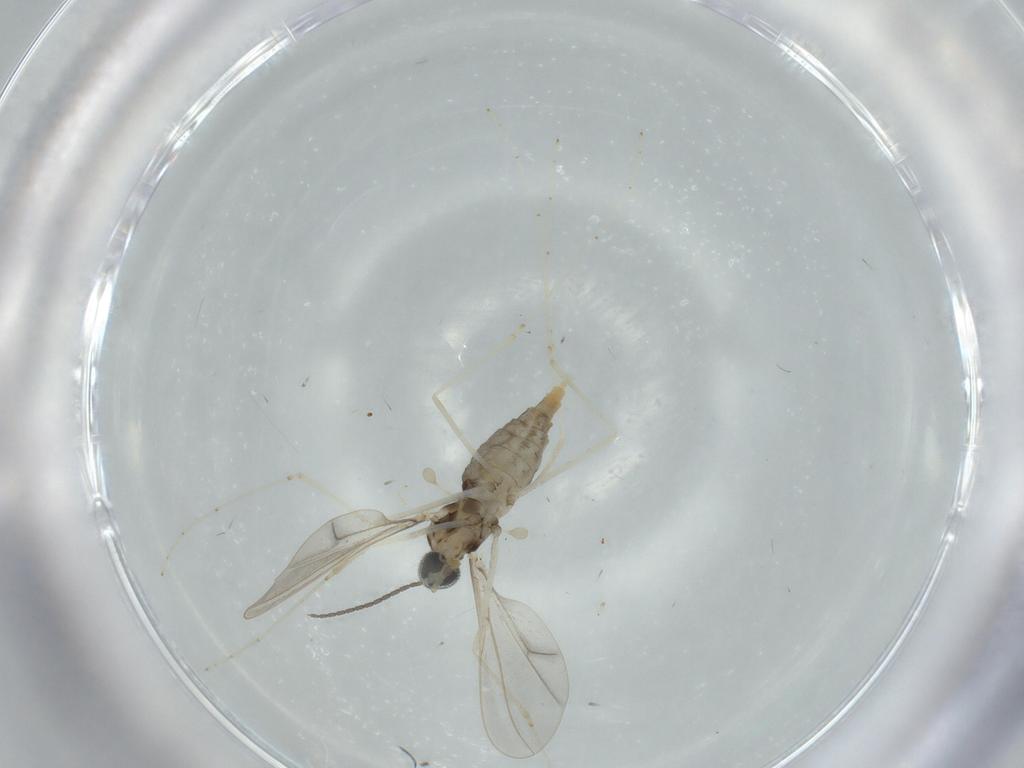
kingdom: Animalia
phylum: Arthropoda
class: Insecta
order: Diptera
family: Cecidomyiidae
